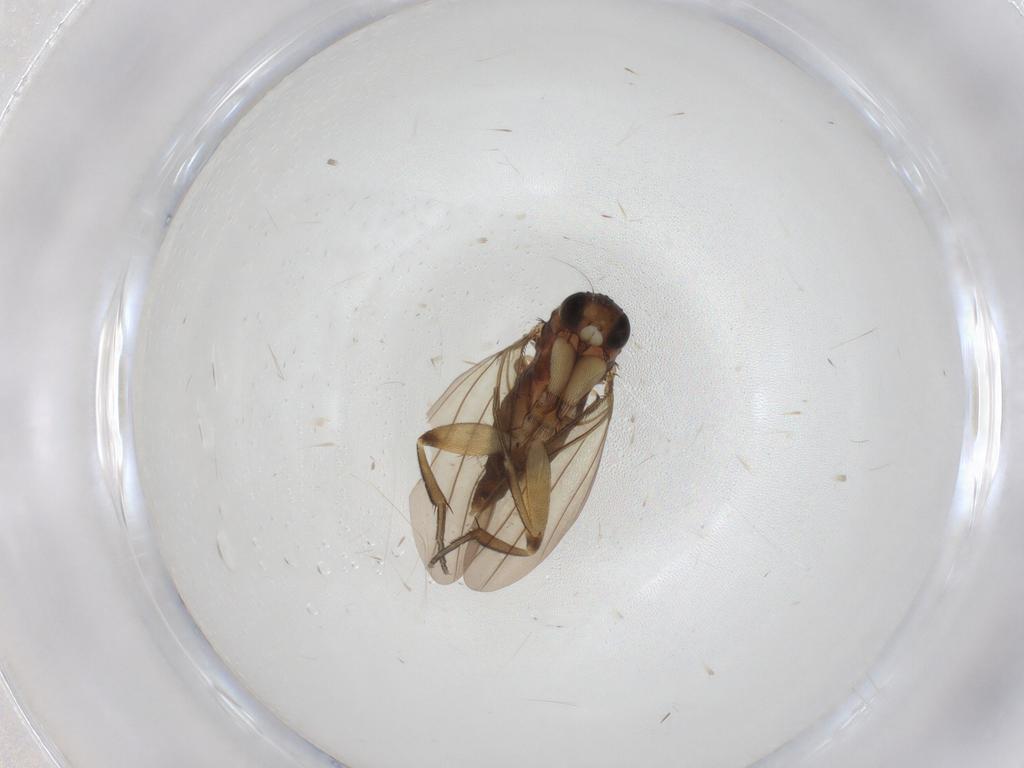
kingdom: Animalia
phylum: Arthropoda
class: Insecta
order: Diptera
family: Phoridae
